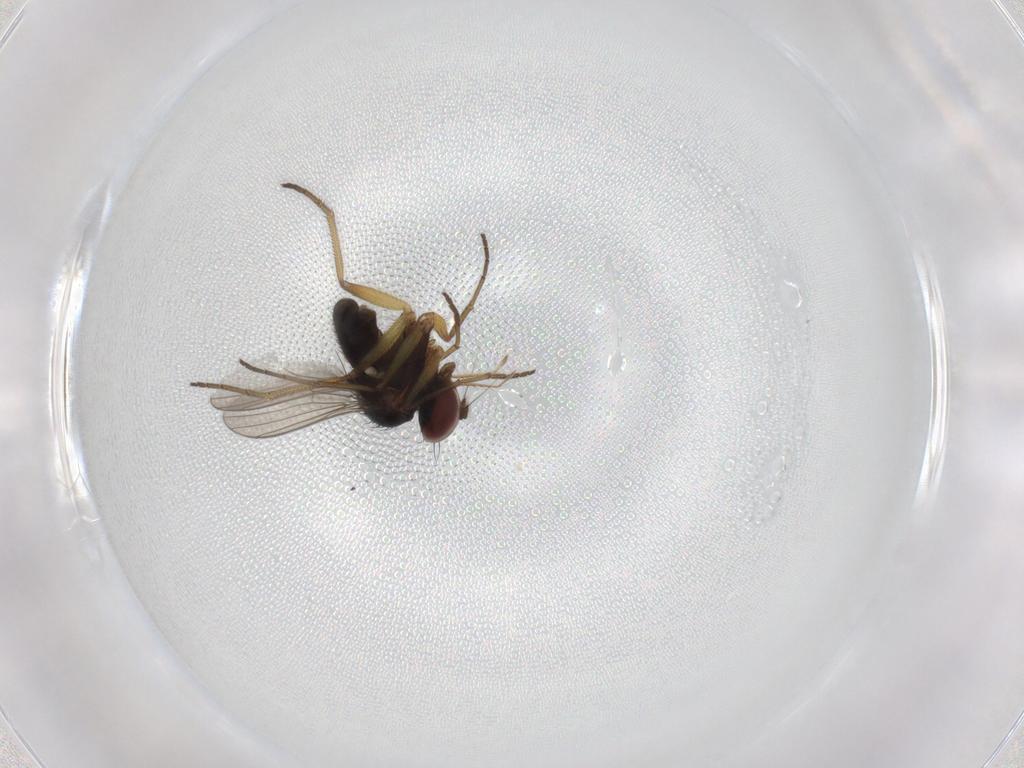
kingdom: Animalia
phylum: Arthropoda
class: Insecta
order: Diptera
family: Dolichopodidae
